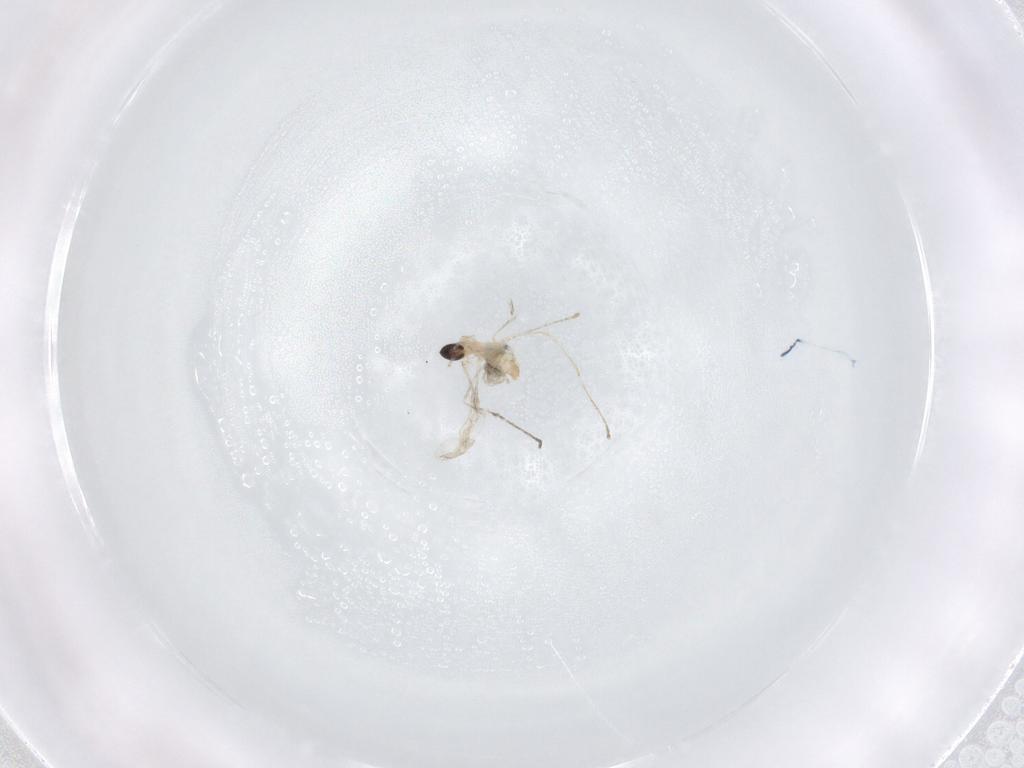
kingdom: Animalia
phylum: Arthropoda
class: Insecta
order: Diptera
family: Cecidomyiidae
